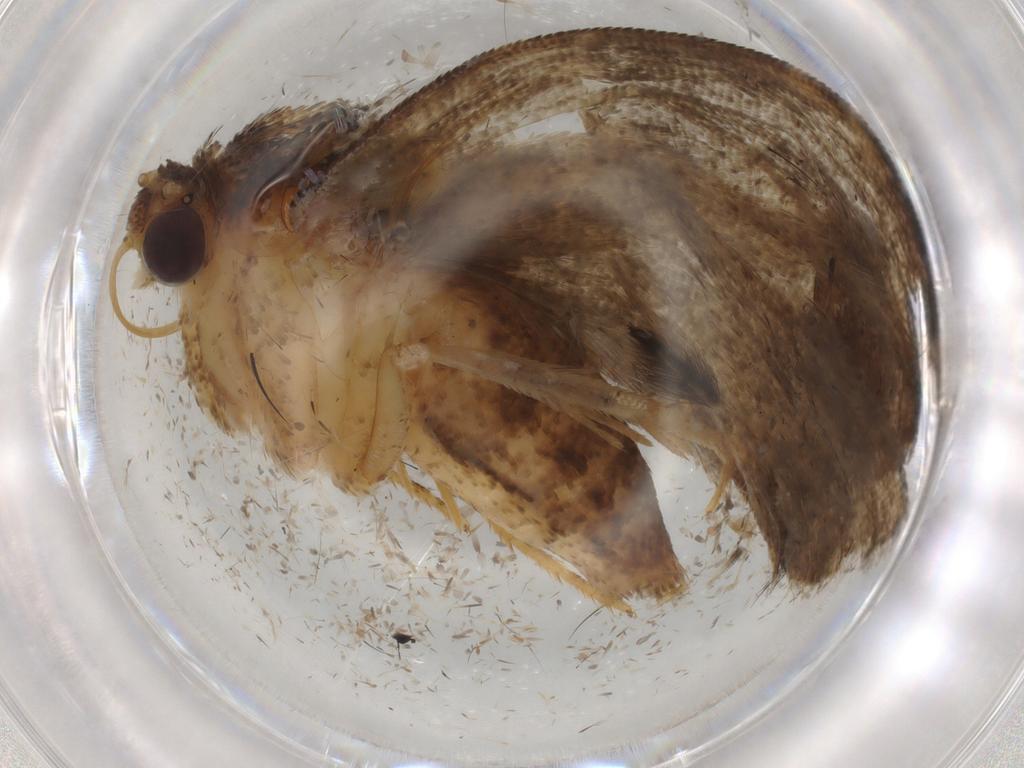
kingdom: Animalia
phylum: Arthropoda
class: Insecta
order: Lepidoptera
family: Noctuidae
